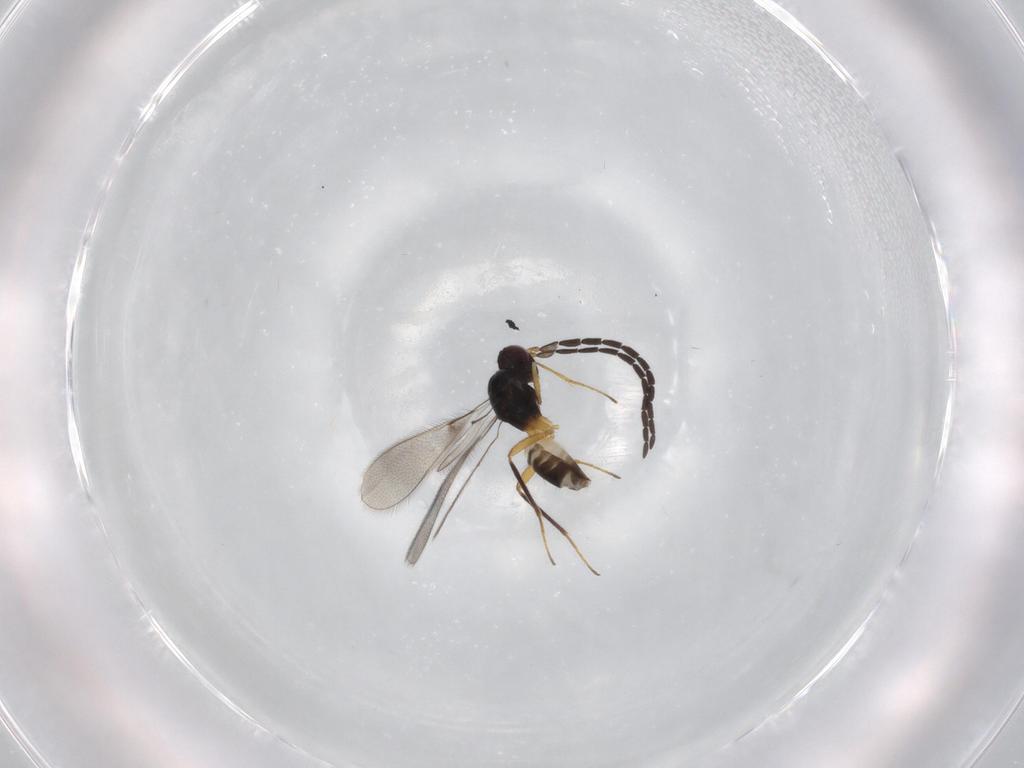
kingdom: Animalia
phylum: Arthropoda
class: Insecta
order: Hymenoptera
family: Mymaridae
